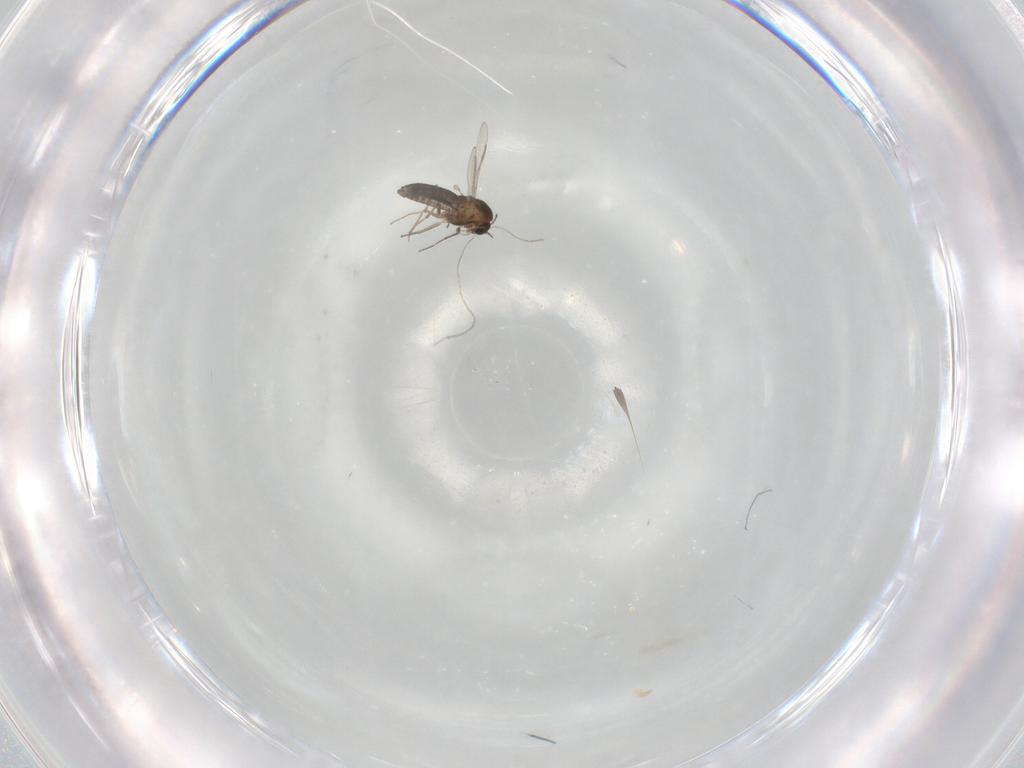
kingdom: Animalia
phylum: Arthropoda
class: Insecta
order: Diptera
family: Chironomidae
